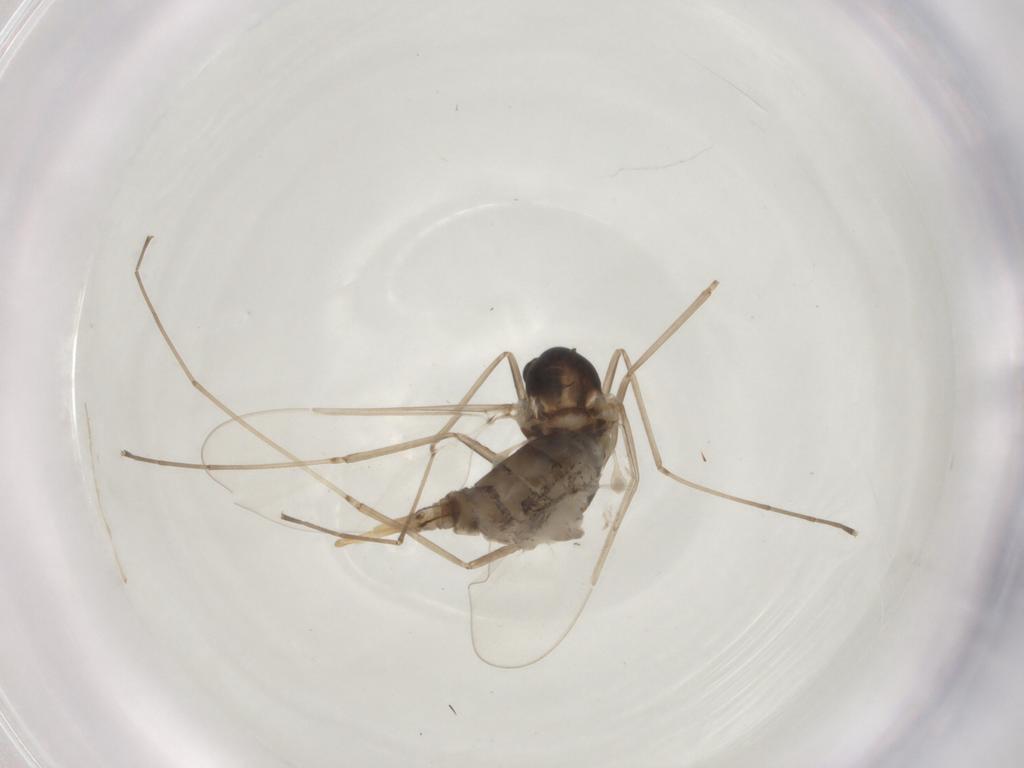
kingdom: Animalia
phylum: Arthropoda
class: Insecta
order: Diptera
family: Cecidomyiidae
